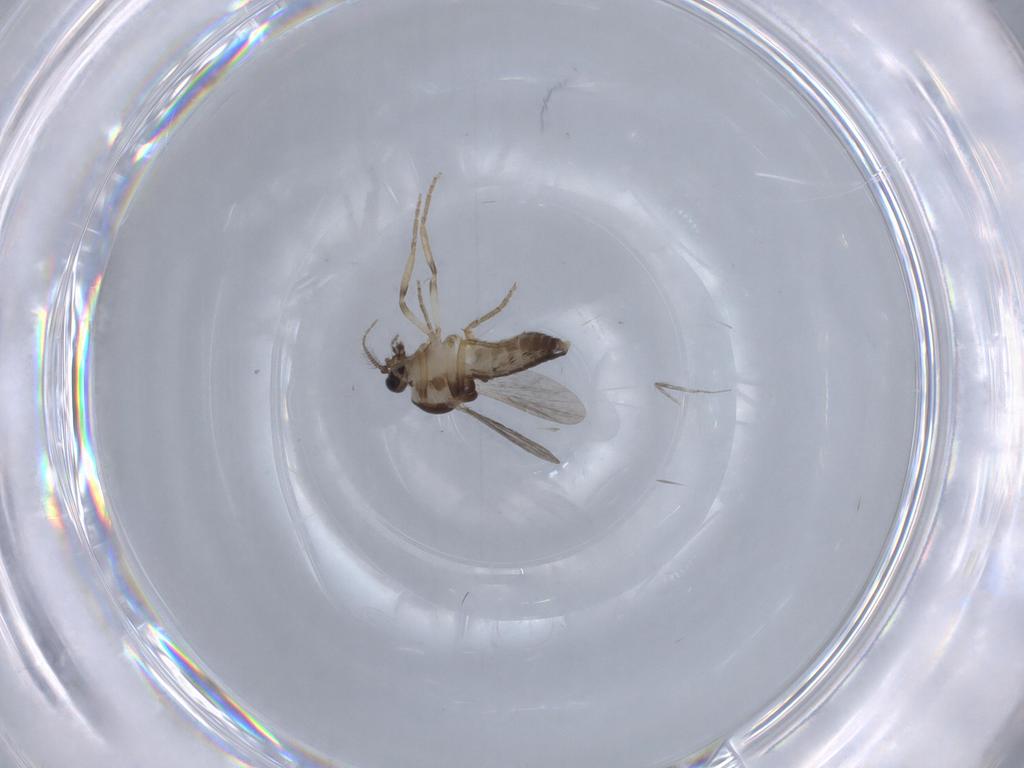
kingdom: Animalia
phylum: Arthropoda
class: Insecta
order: Diptera
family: Ceratopogonidae
